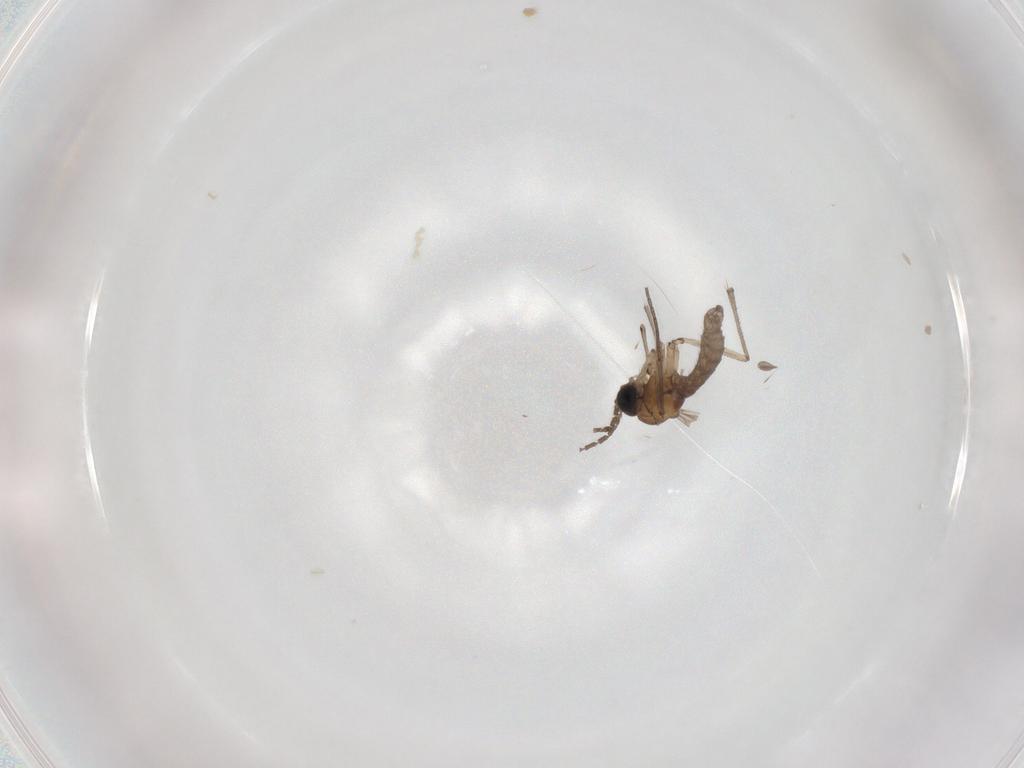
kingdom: Animalia
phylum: Arthropoda
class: Insecta
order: Diptera
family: Sciaridae
